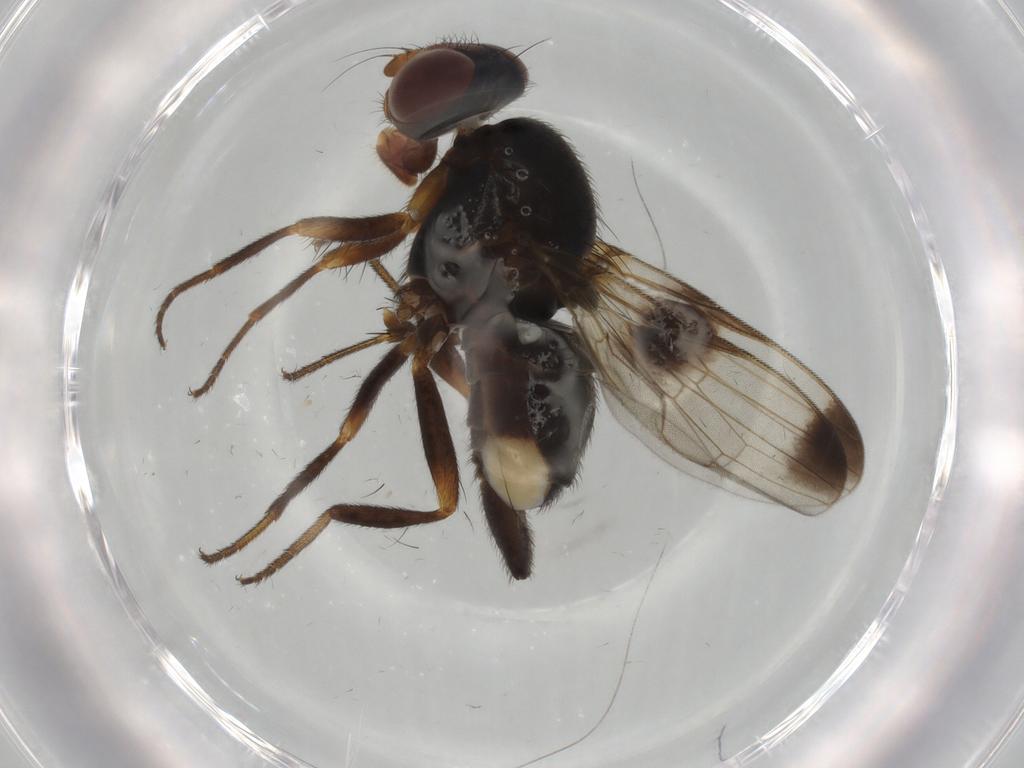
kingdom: Animalia
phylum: Arthropoda
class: Insecta
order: Diptera
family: Ulidiidae
